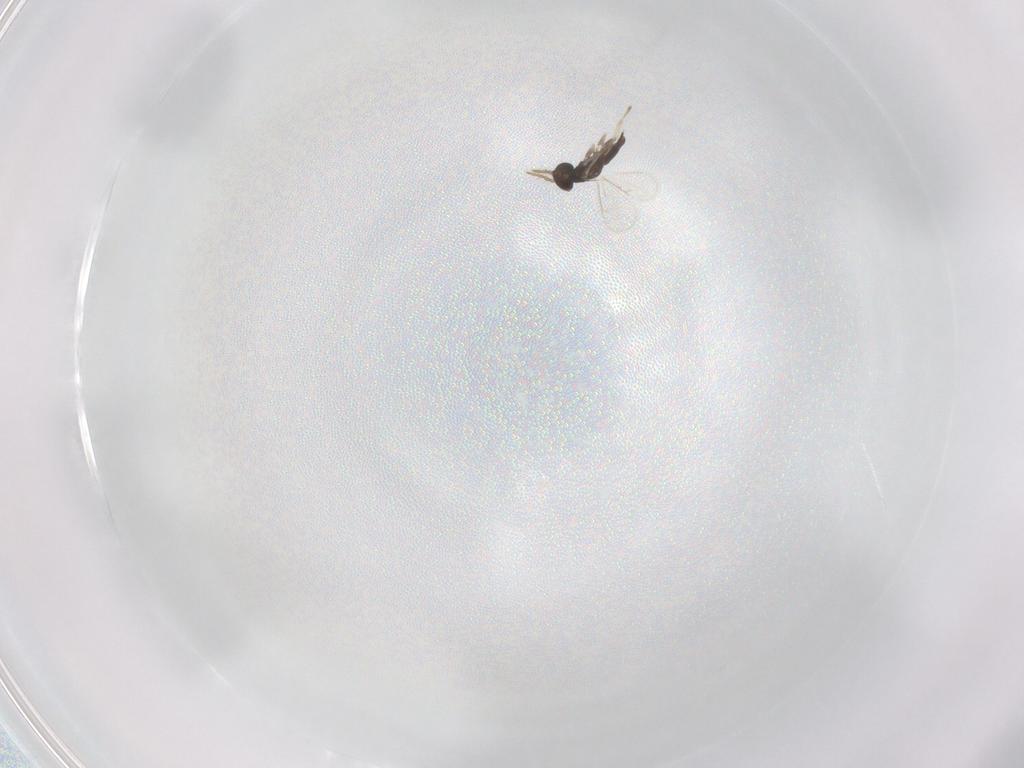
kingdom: Animalia
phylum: Arthropoda
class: Insecta
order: Hymenoptera
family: Eulophidae
